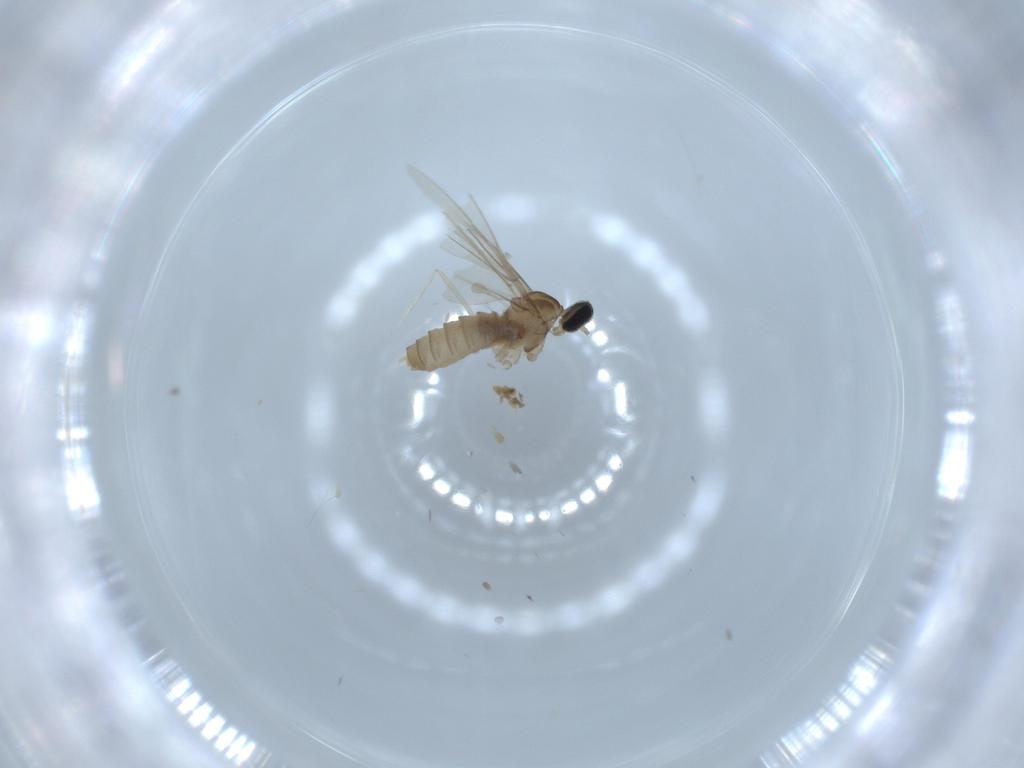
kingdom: Animalia
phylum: Arthropoda
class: Insecta
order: Diptera
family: Cecidomyiidae
